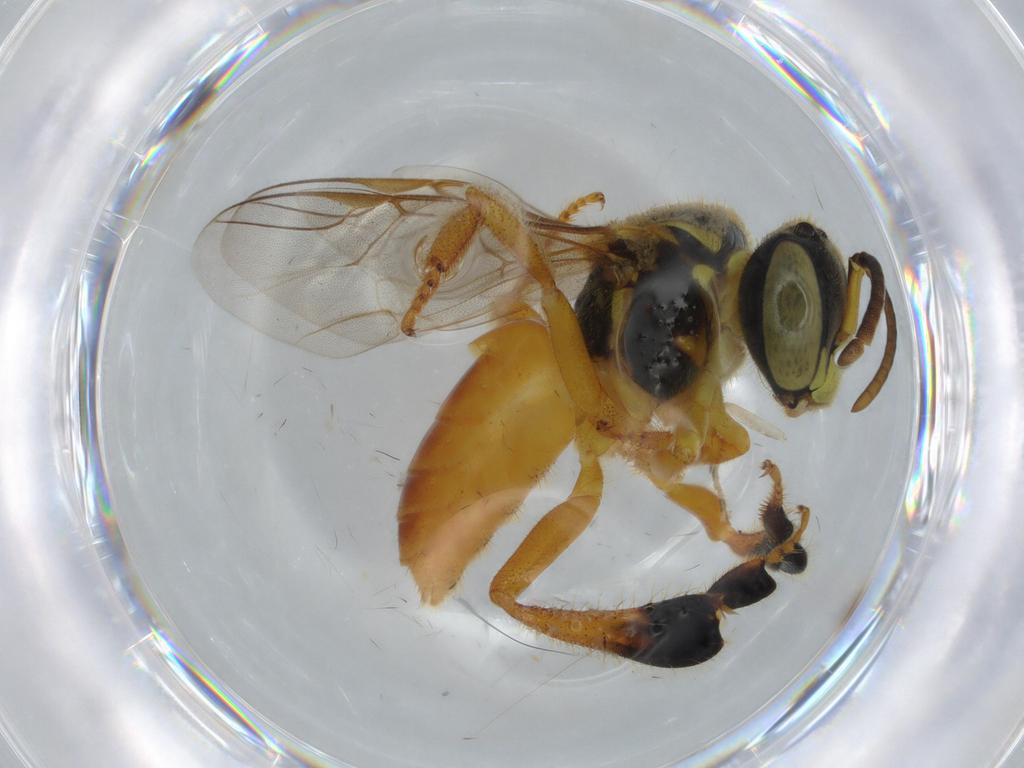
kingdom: Animalia
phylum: Arthropoda
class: Insecta
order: Hymenoptera
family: Apidae
